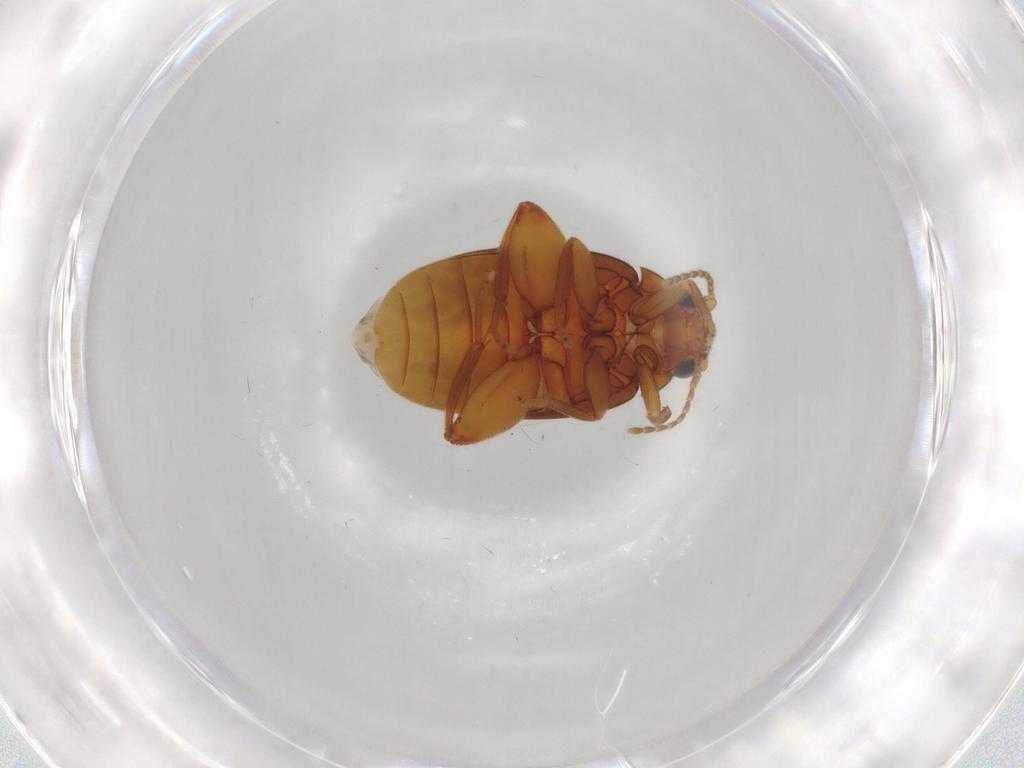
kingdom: Animalia
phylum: Arthropoda
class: Insecta
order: Coleoptera
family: Scirtidae
